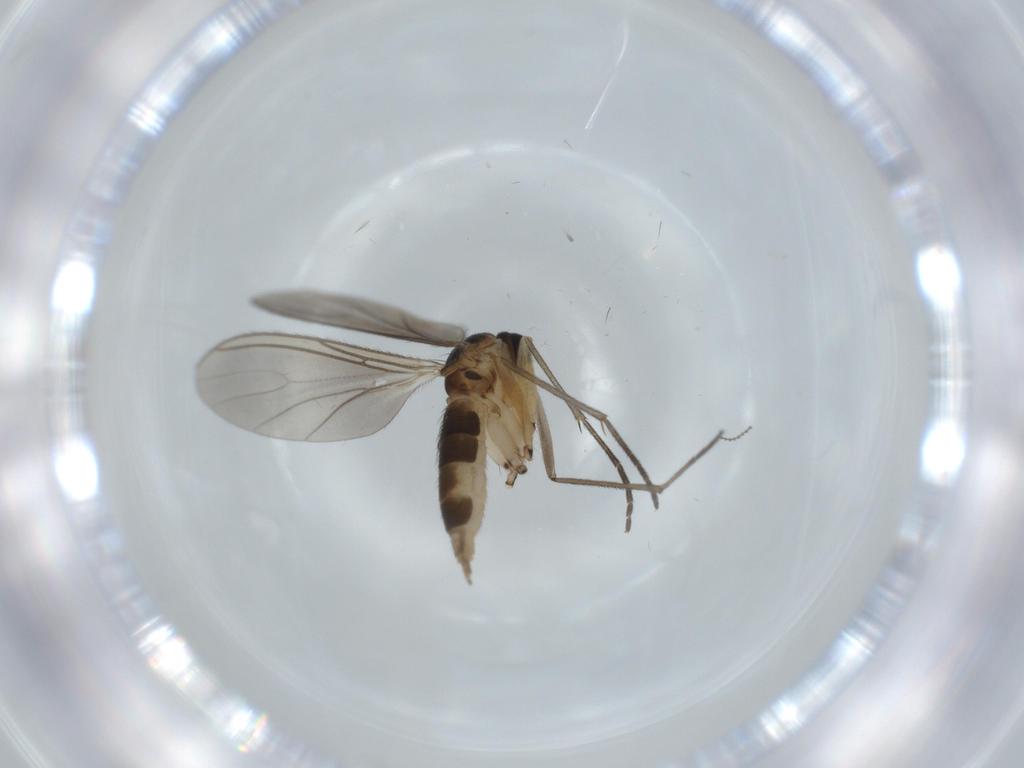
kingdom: Animalia
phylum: Arthropoda
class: Insecta
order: Diptera
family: Sciaridae
